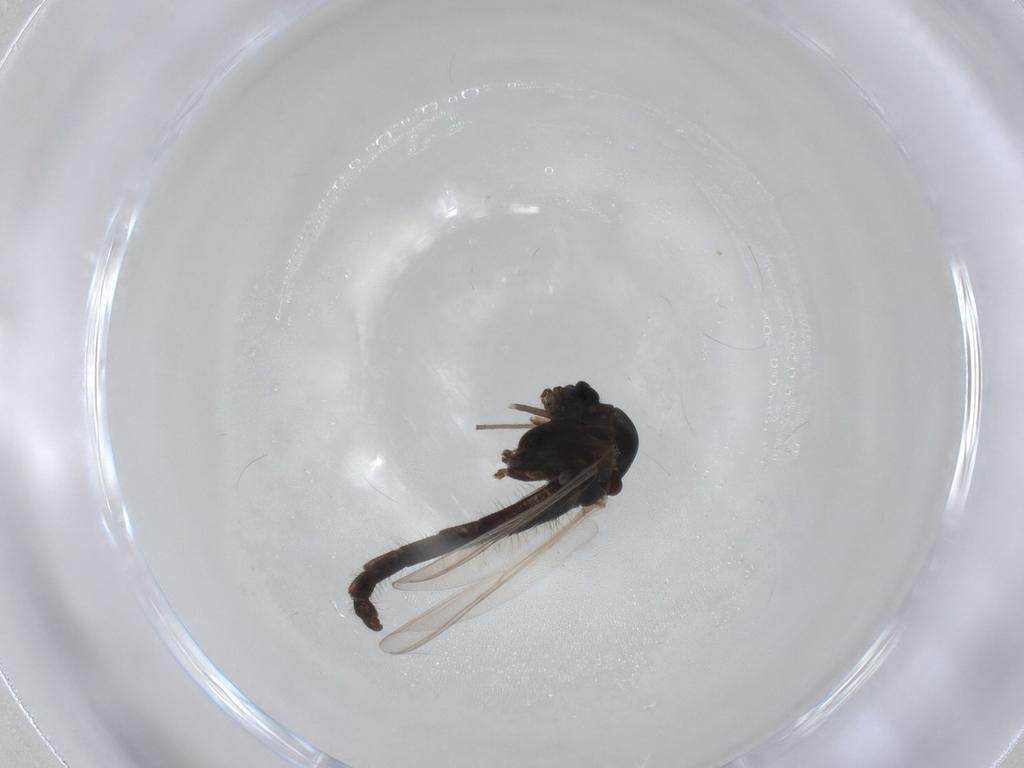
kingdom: Animalia
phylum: Arthropoda
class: Insecta
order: Diptera
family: Chironomidae
